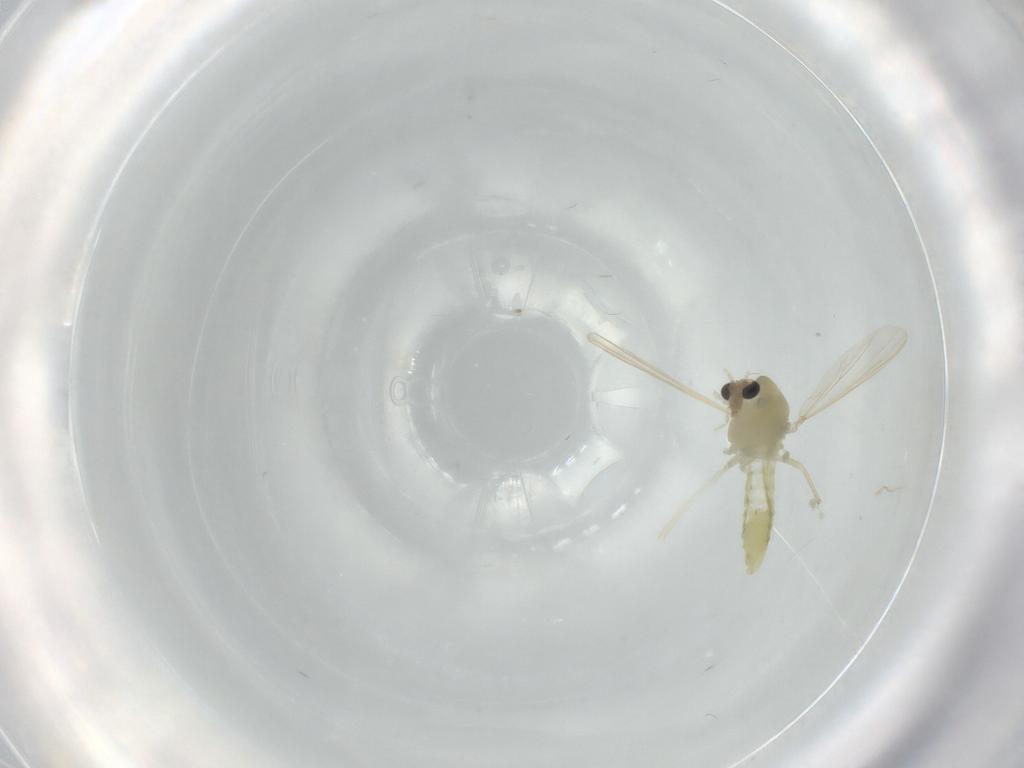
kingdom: Animalia
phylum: Arthropoda
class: Insecta
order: Diptera
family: Chironomidae
